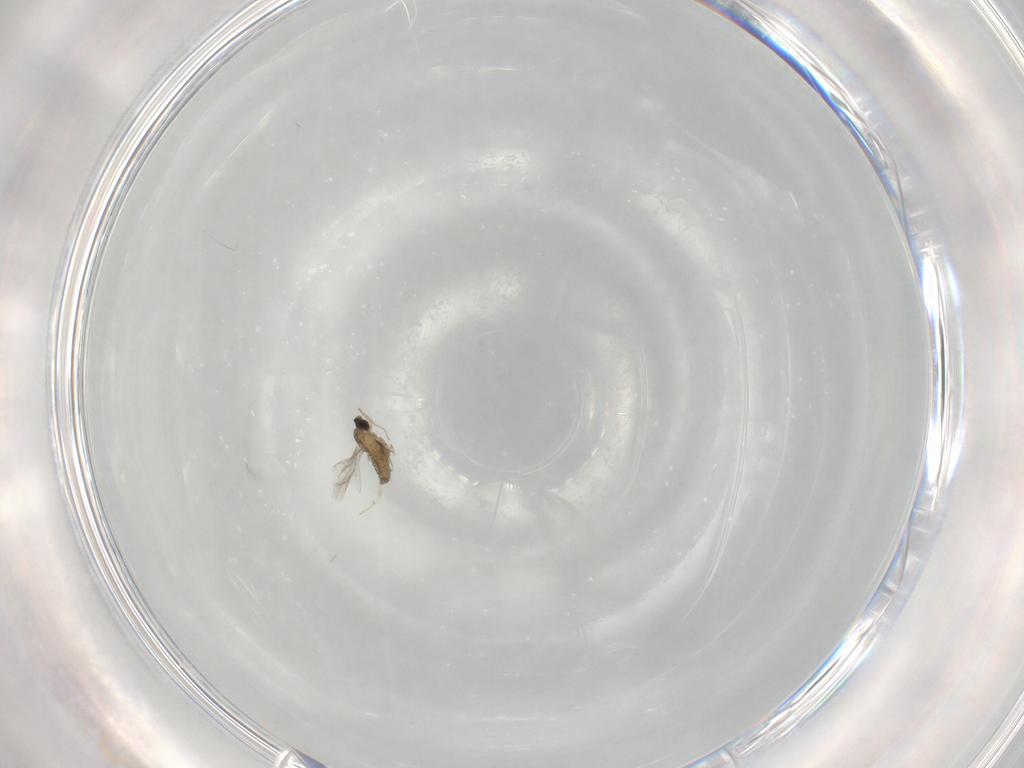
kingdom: Animalia
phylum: Arthropoda
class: Insecta
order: Diptera
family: Cecidomyiidae
